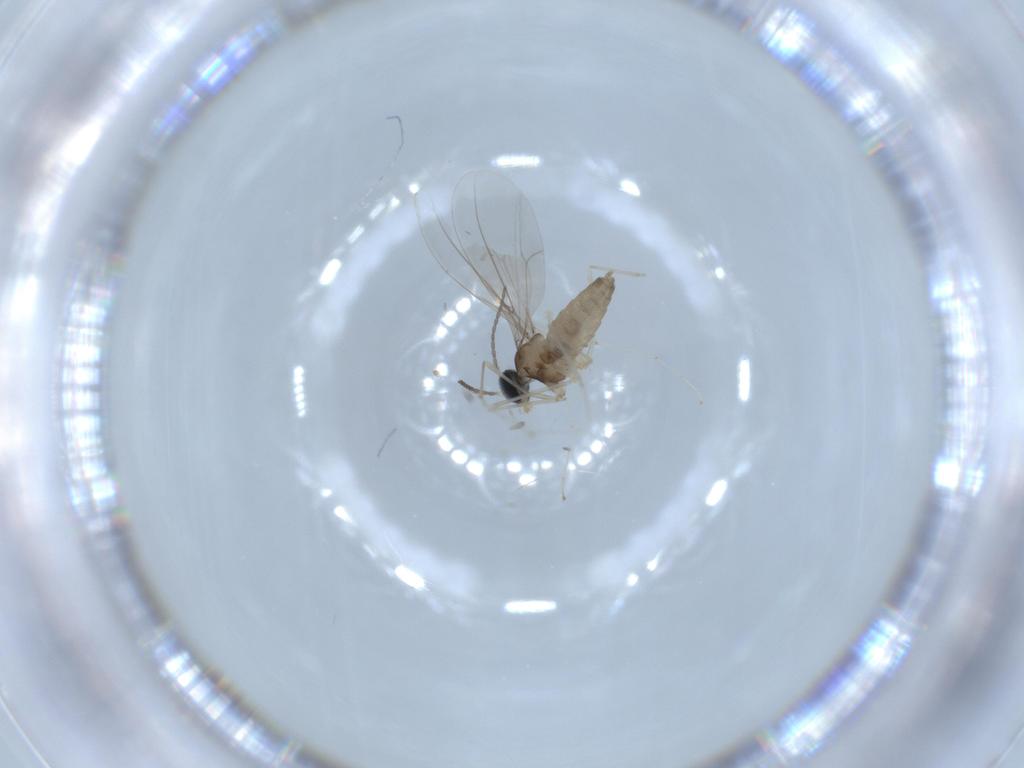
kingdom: Animalia
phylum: Arthropoda
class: Insecta
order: Diptera
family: Cecidomyiidae
